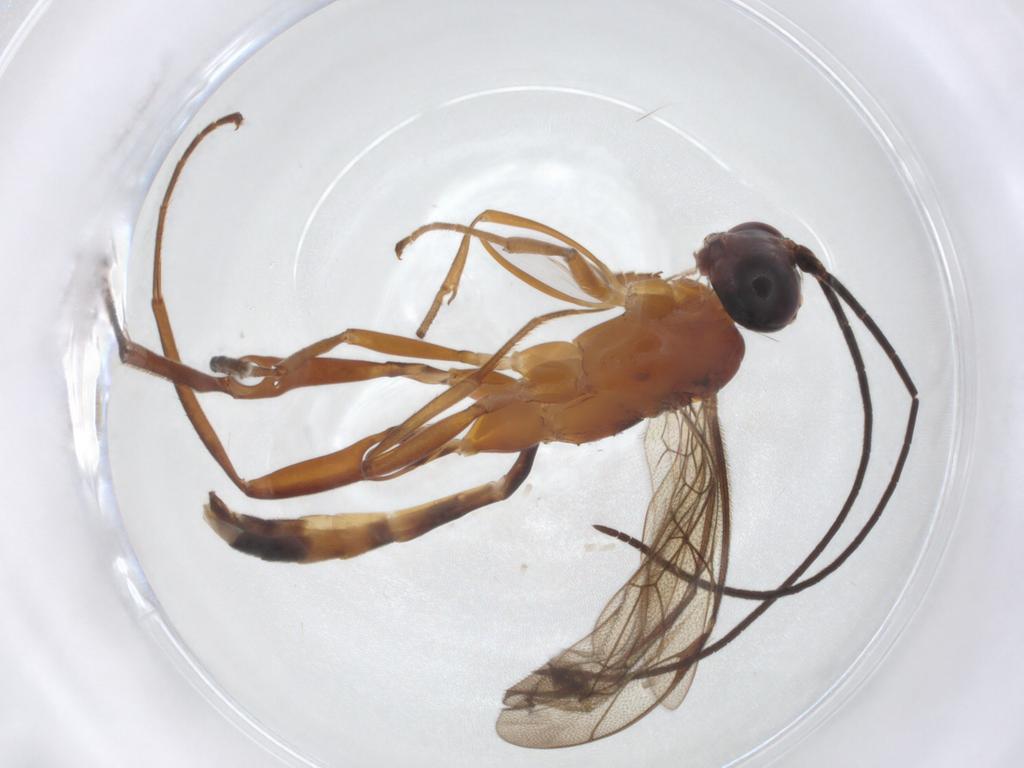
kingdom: Animalia
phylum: Arthropoda
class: Insecta
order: Hymenoptera
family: Ichneumonidae
